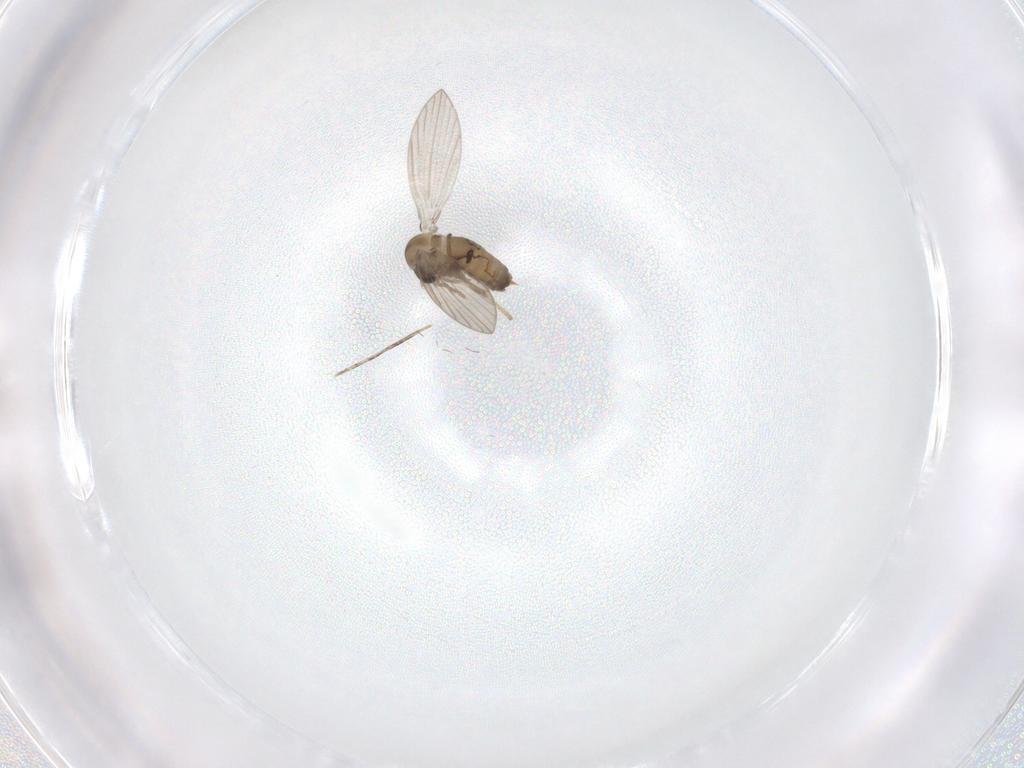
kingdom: Animalia
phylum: Arthropoda
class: Insecta
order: Diptera
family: Psychodidae
